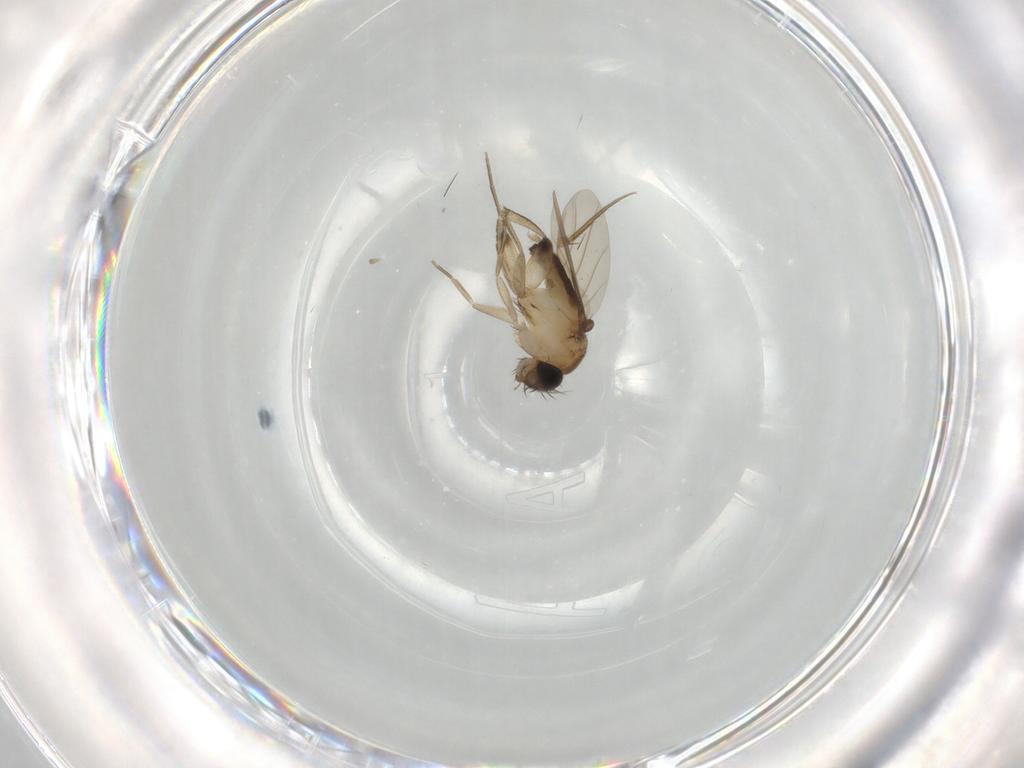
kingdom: Animalia
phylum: Arthropoda
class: Insecta
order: Diptera
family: Phoridae
